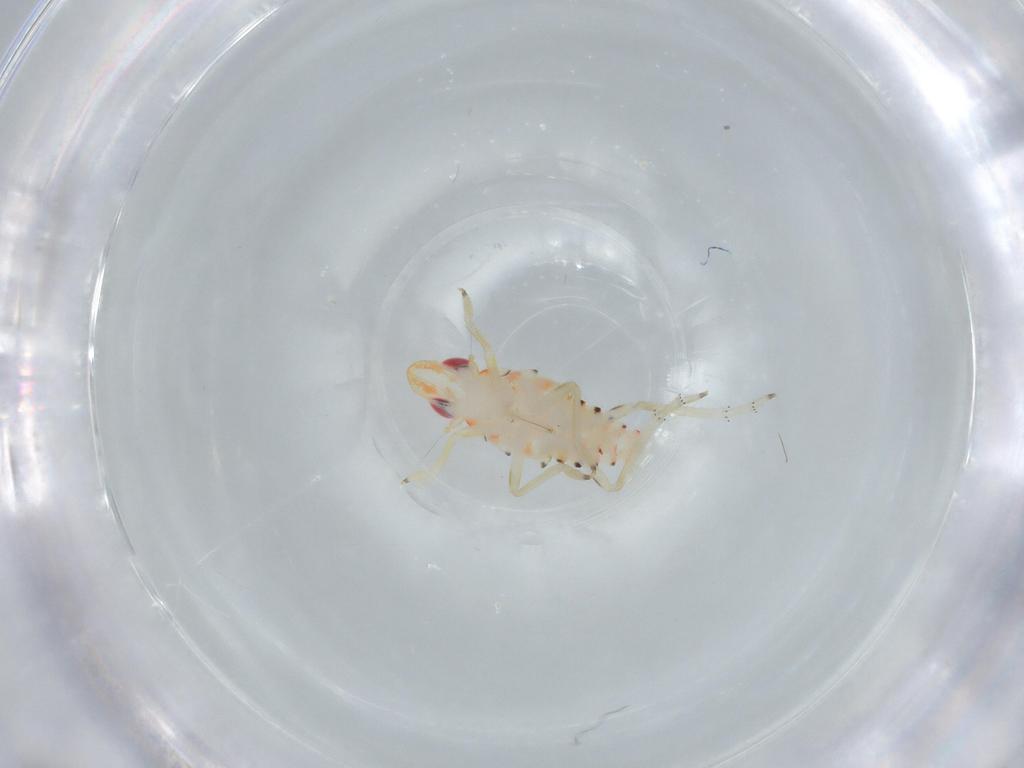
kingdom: Animalia
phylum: Arthropoda
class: Insecta
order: Hemiptera
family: Tropiduchidae
